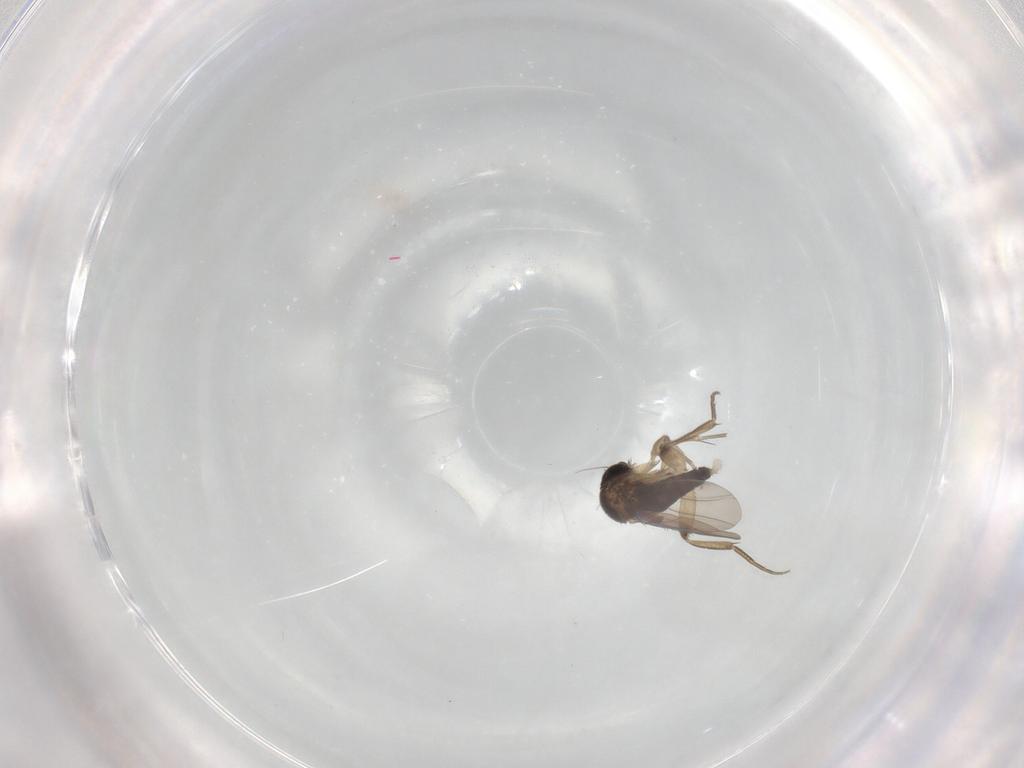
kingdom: Animalia
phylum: Arthropoda
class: Insecta
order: Diptera
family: Phoridae
